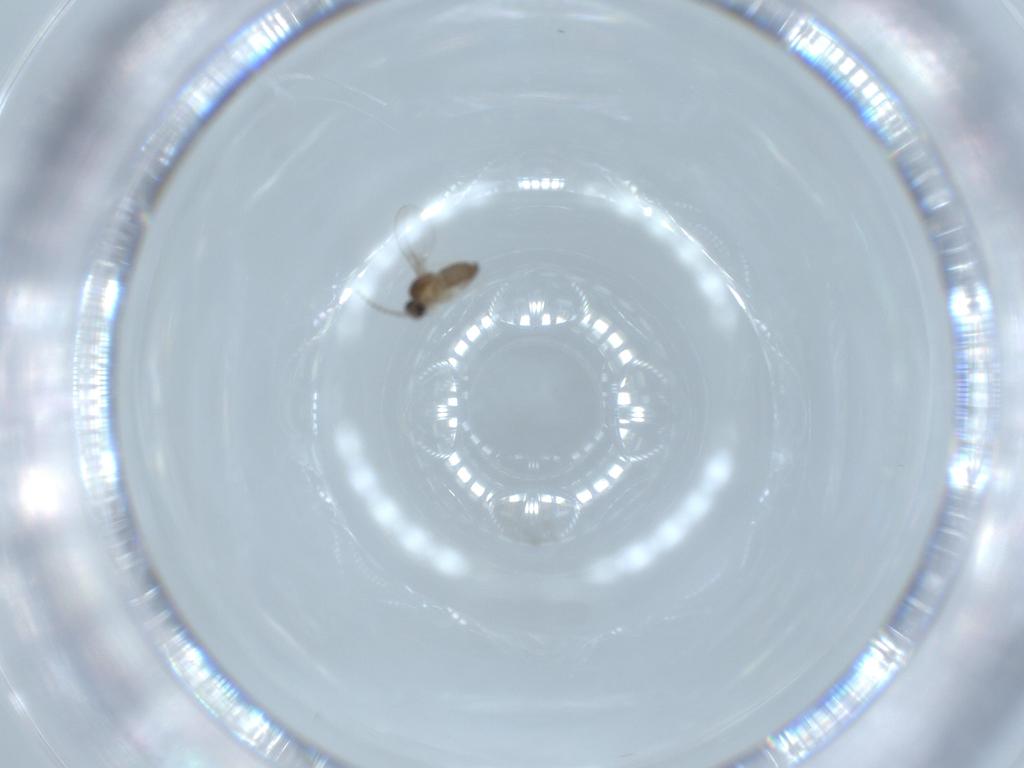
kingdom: Animalia
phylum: Arthropoda
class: Insecta
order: Diptera
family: Cecidomyiidae
